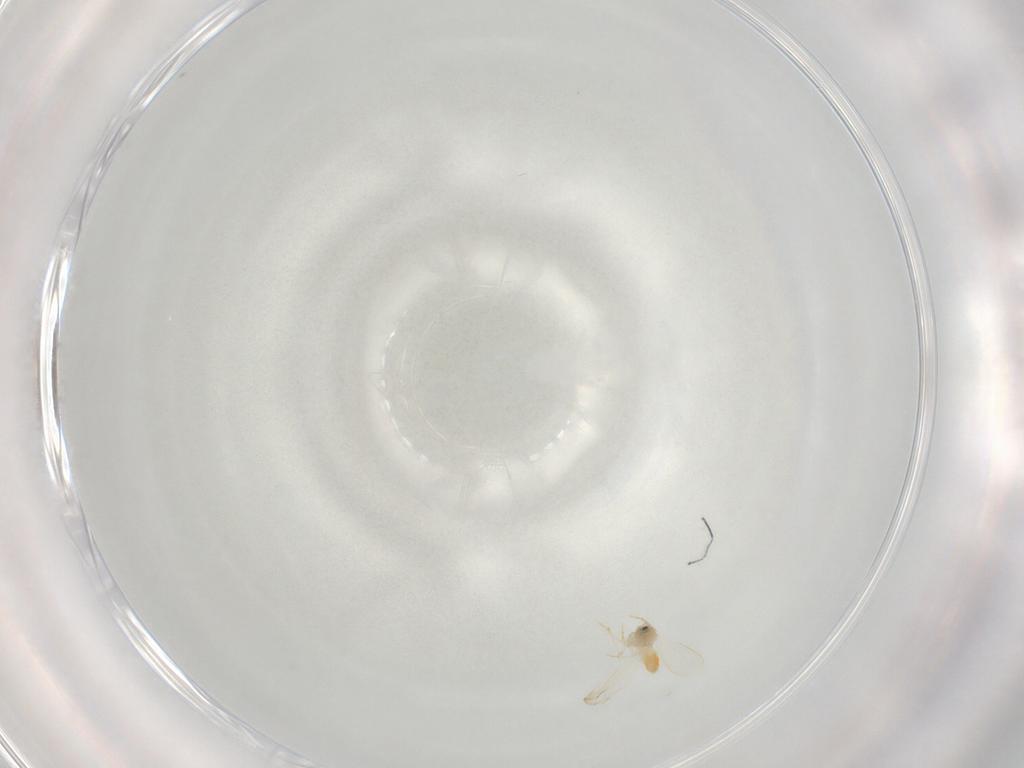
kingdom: Animalia
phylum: Arthropoda
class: Insecta
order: Hemiptera
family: Aleyrodidae
